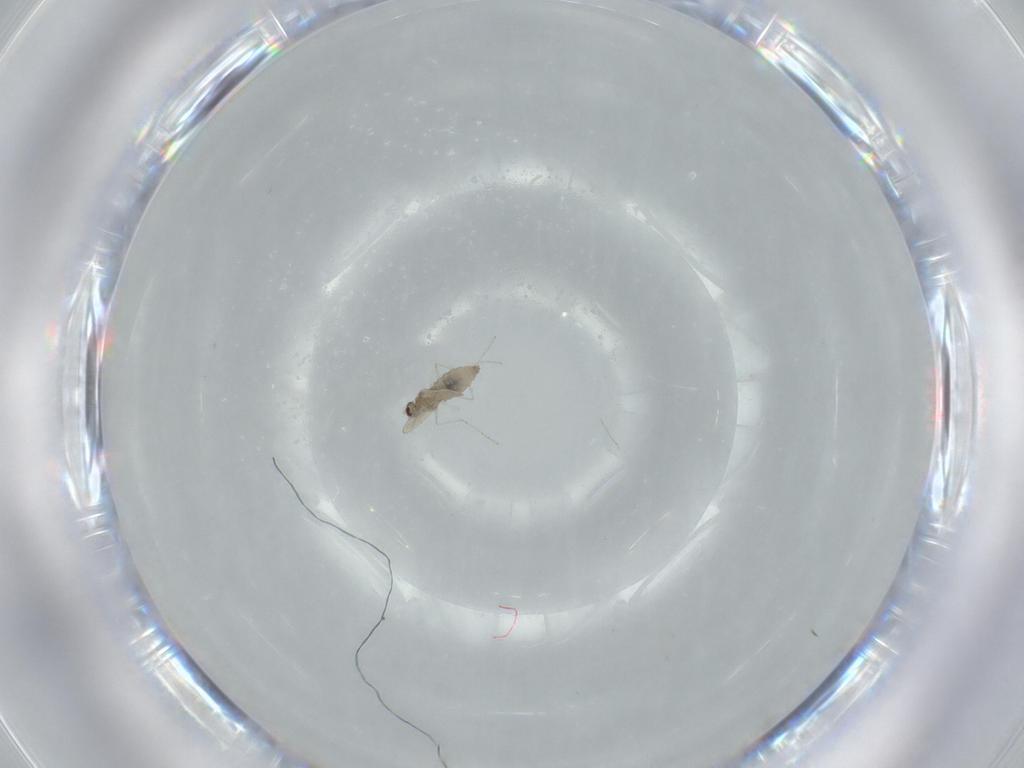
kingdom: Animalia
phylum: Arthropoda
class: Insecta
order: Diptera
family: Cecidomyiidae
